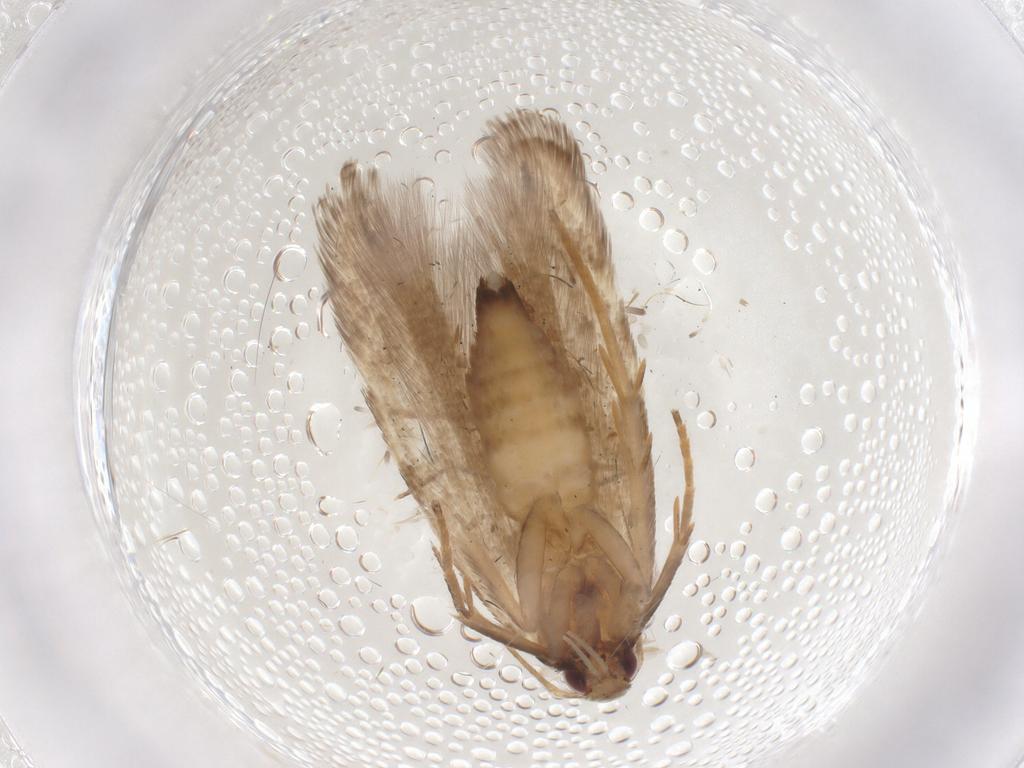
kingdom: Animalia
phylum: Arthropoda
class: Insecta
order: Lepidoptera
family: Gelechiidae
